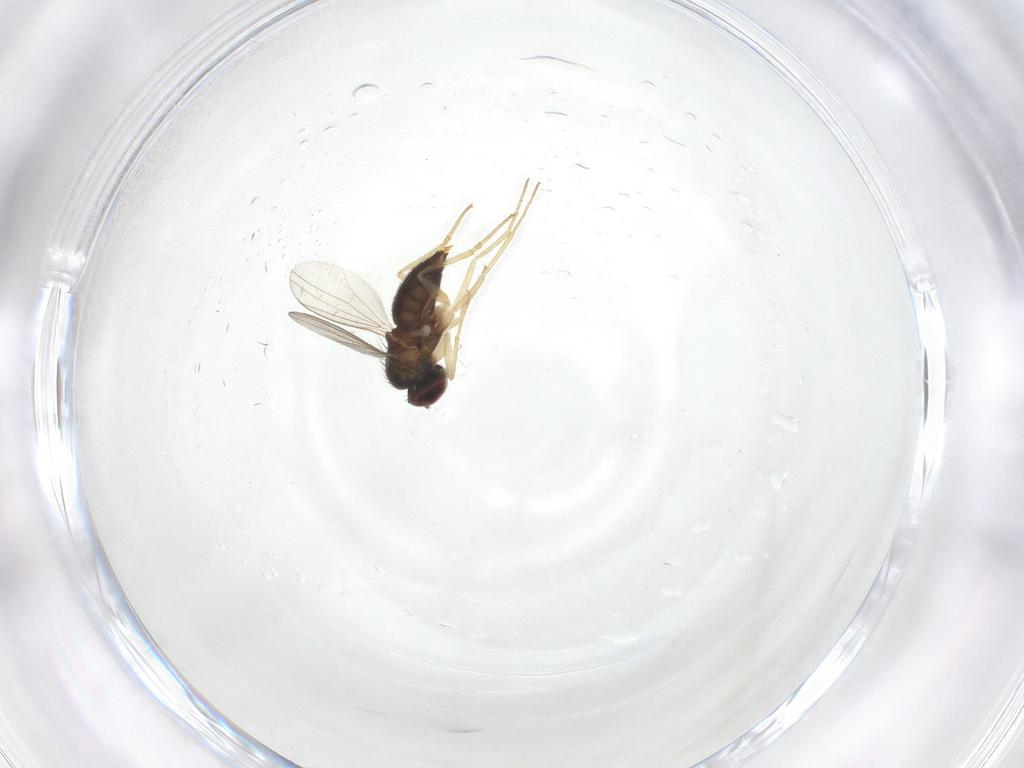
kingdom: Animalia
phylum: Arthropoda
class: Insecta
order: Diptera
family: Dolichopodidae
